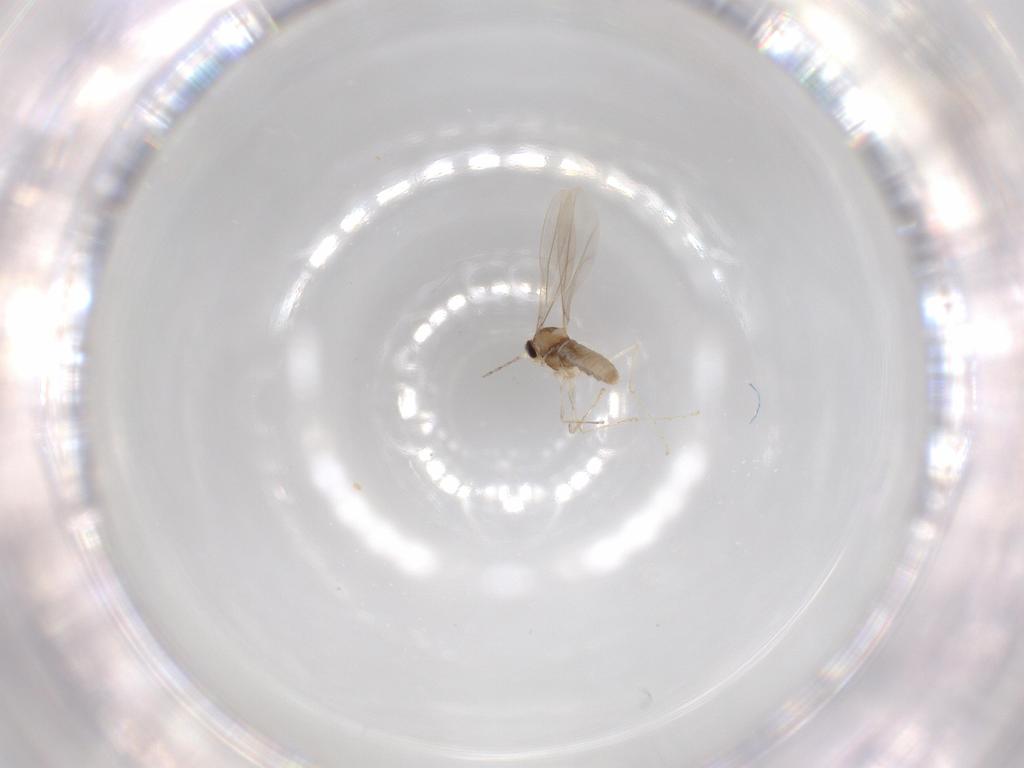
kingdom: Animalia
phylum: Arthropoda
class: Insecta
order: Diptera
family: Cecidomyiidae
